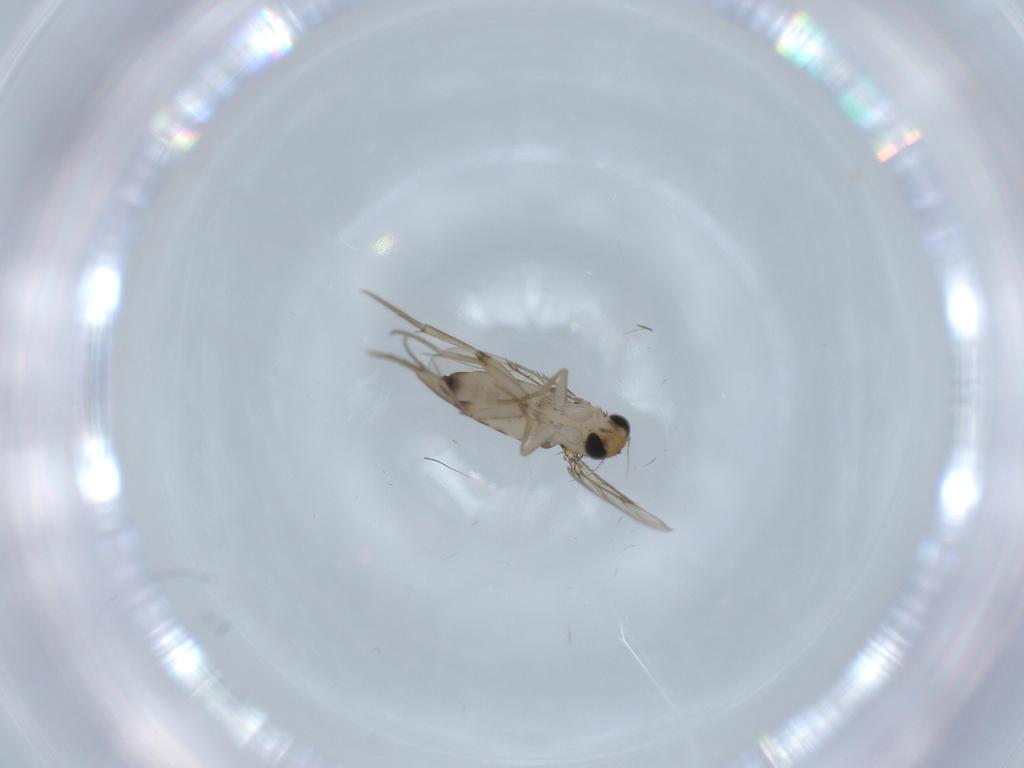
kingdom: Animalia
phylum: Arthropoda
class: Insecta
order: Diptera
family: Phoridae
